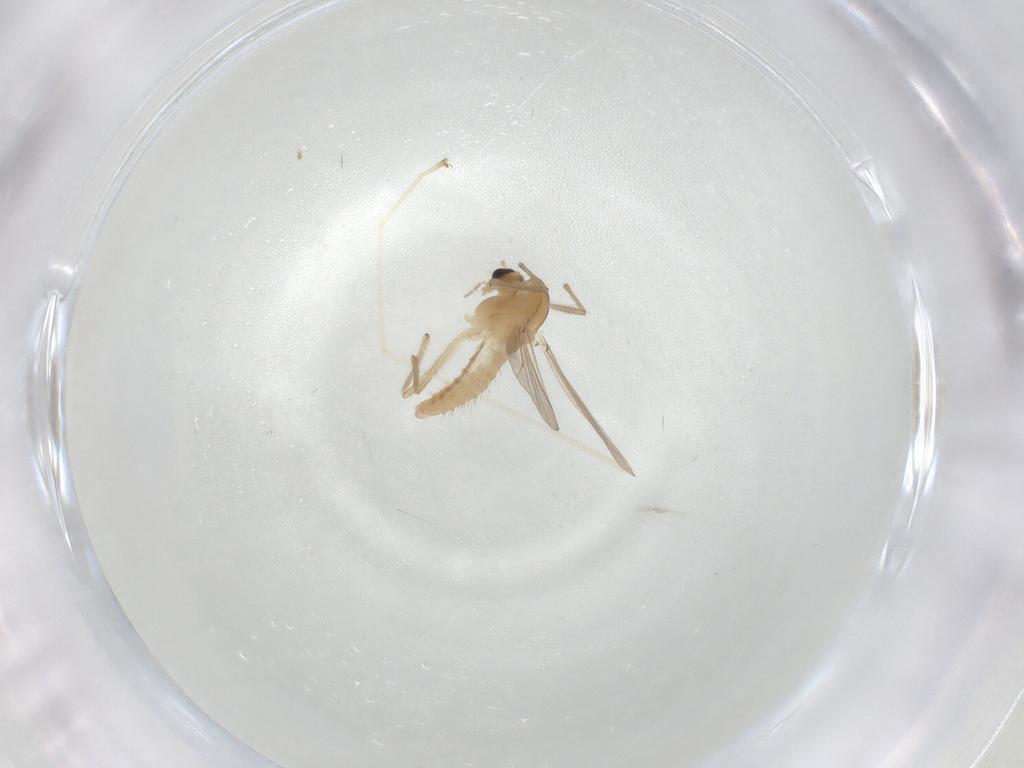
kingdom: Animalia
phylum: Arthropoda
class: Insecta
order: Diptera
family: Chironomidae
